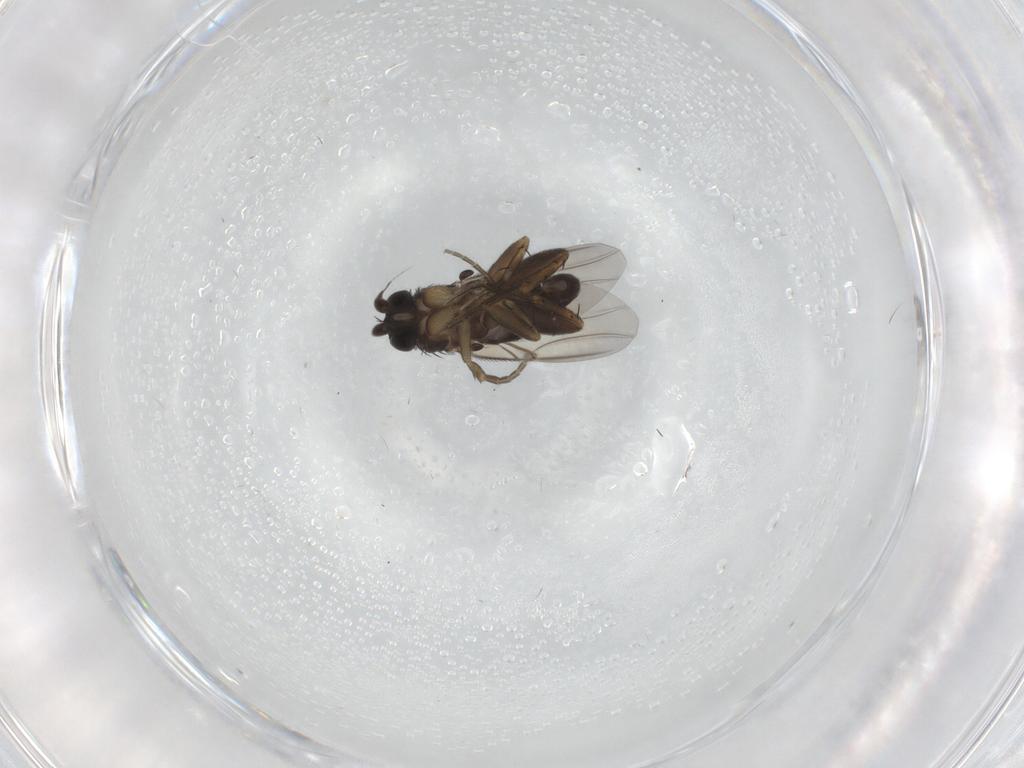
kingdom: Animalia
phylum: Arthropoda
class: Insecta
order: Diptera
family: Phoridae
